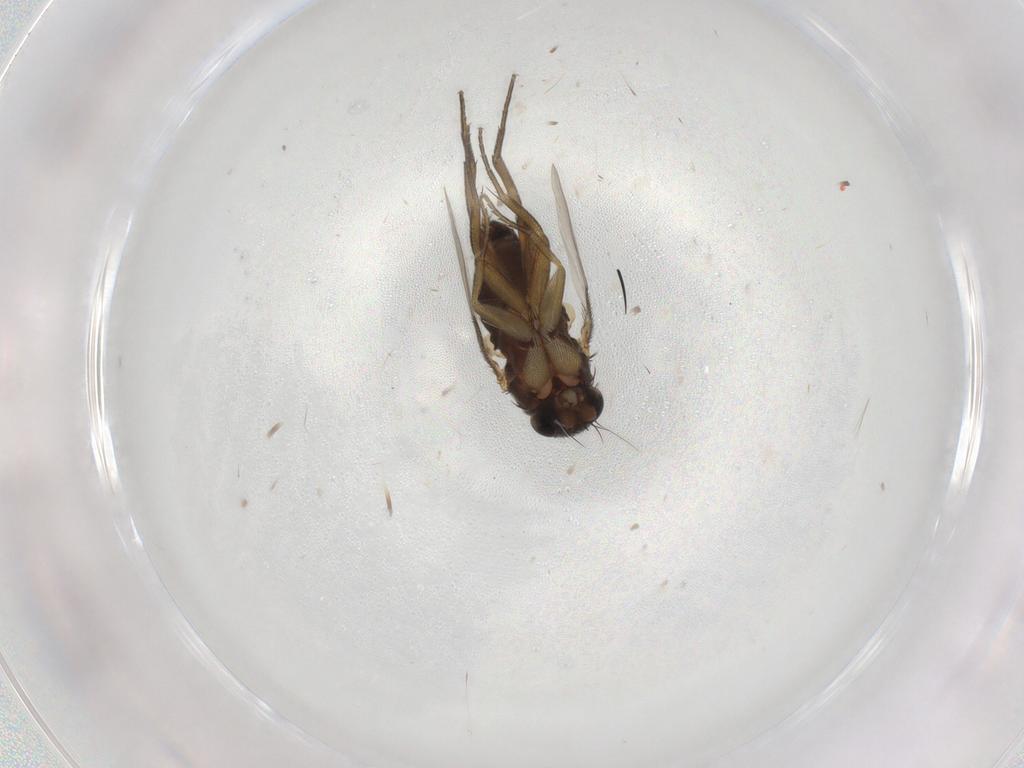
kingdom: Animalia
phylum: Arthropoda
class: Insecta
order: Diptera
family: Phoridae
